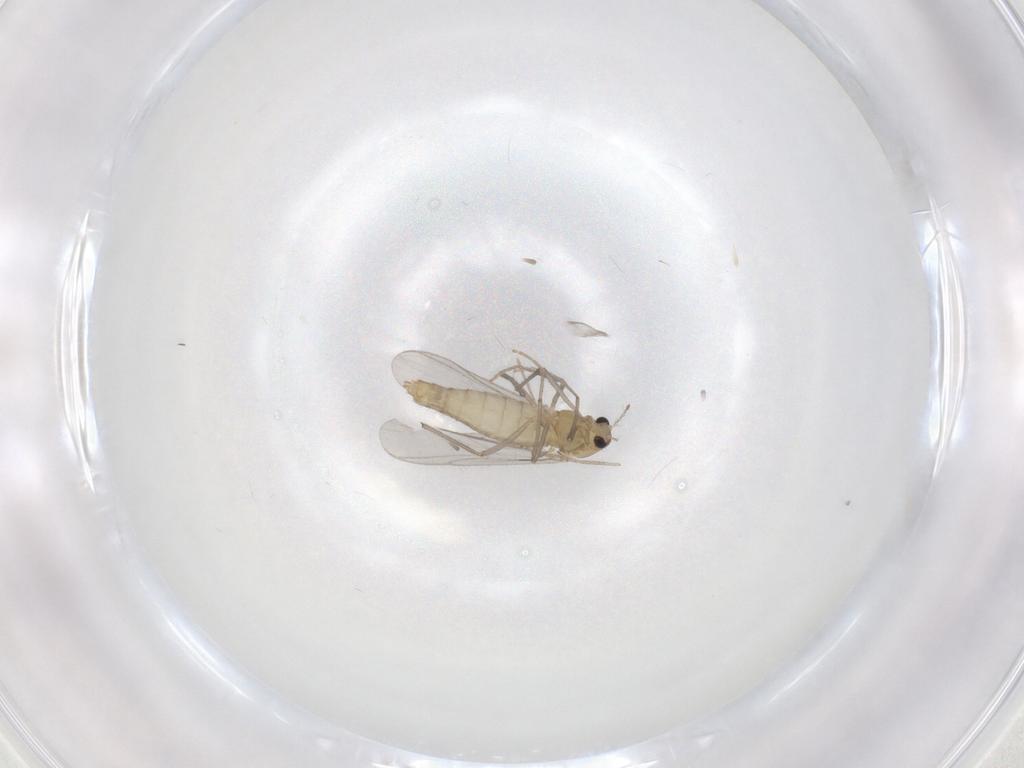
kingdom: Animalia
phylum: Arthropoda
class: Insecta
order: Diptera
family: Chironomidae
